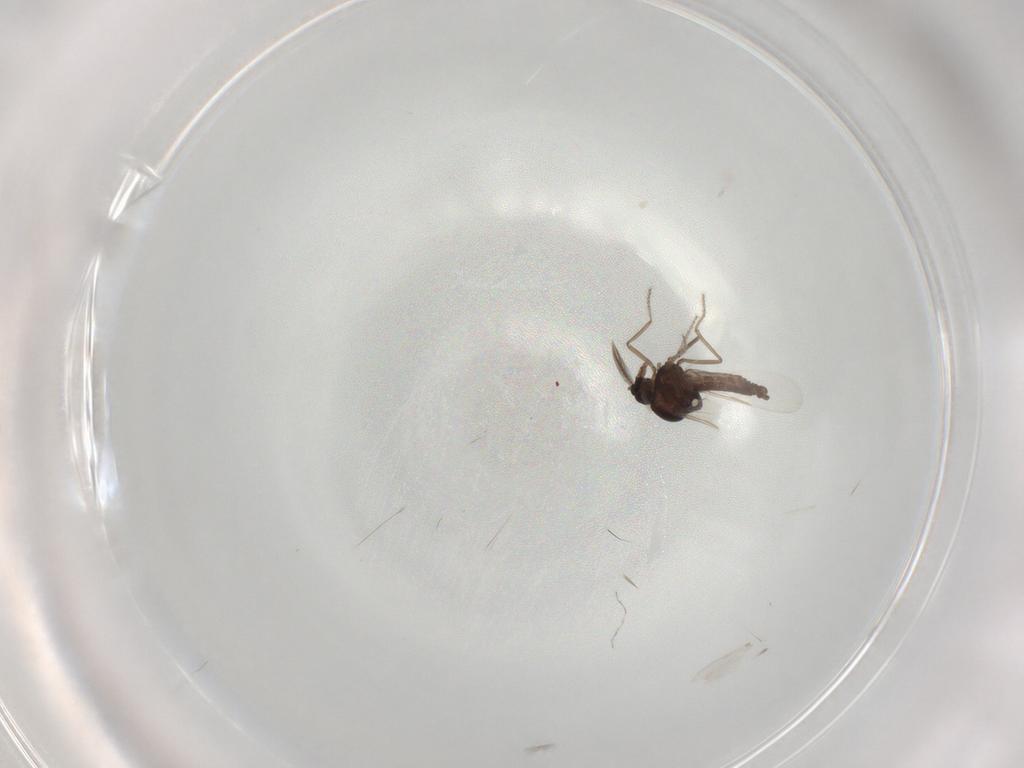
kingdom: Animalia
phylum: Arthropoda
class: Insecta
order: Diptera
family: Ceratopogonidae
